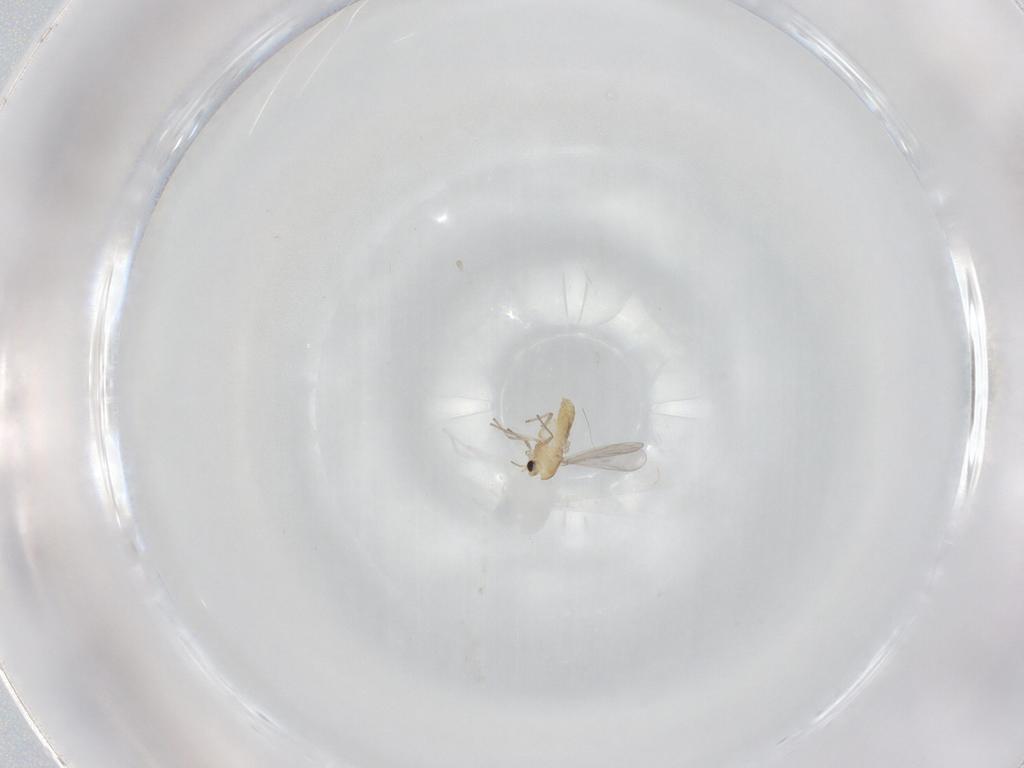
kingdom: Animalia
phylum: Arthropoda
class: Insecta
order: Diptera
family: Chironomidae
